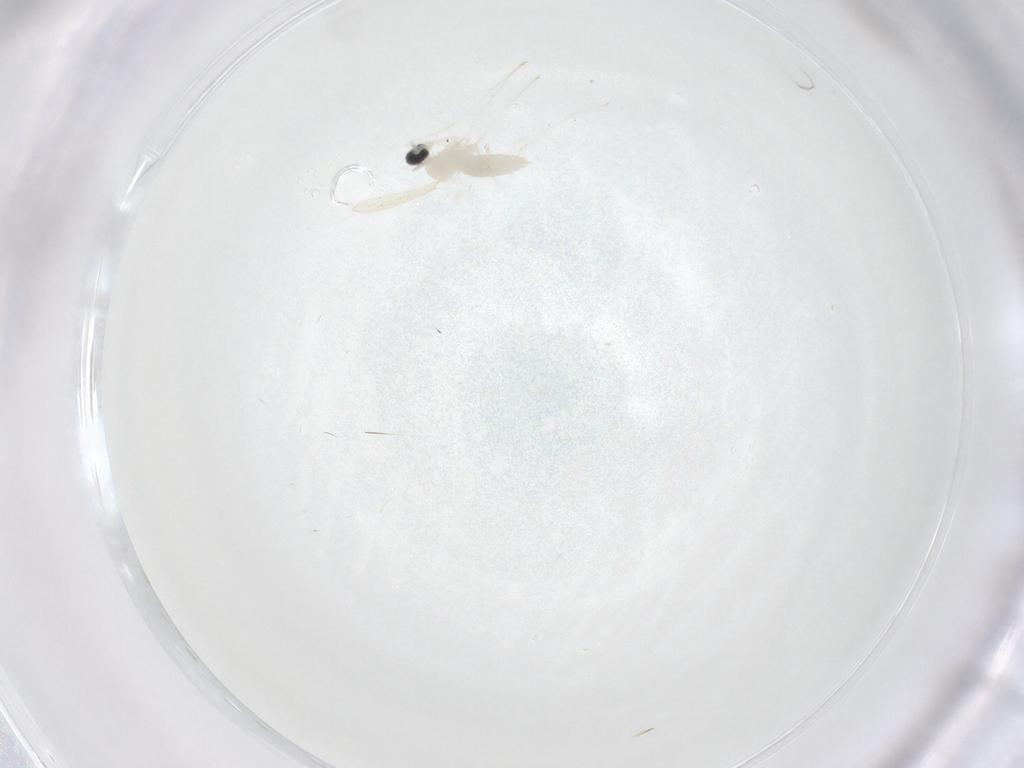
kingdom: Animalia
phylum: Arthropoda
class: Insecta
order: Diptera
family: Cecidomyiidae
